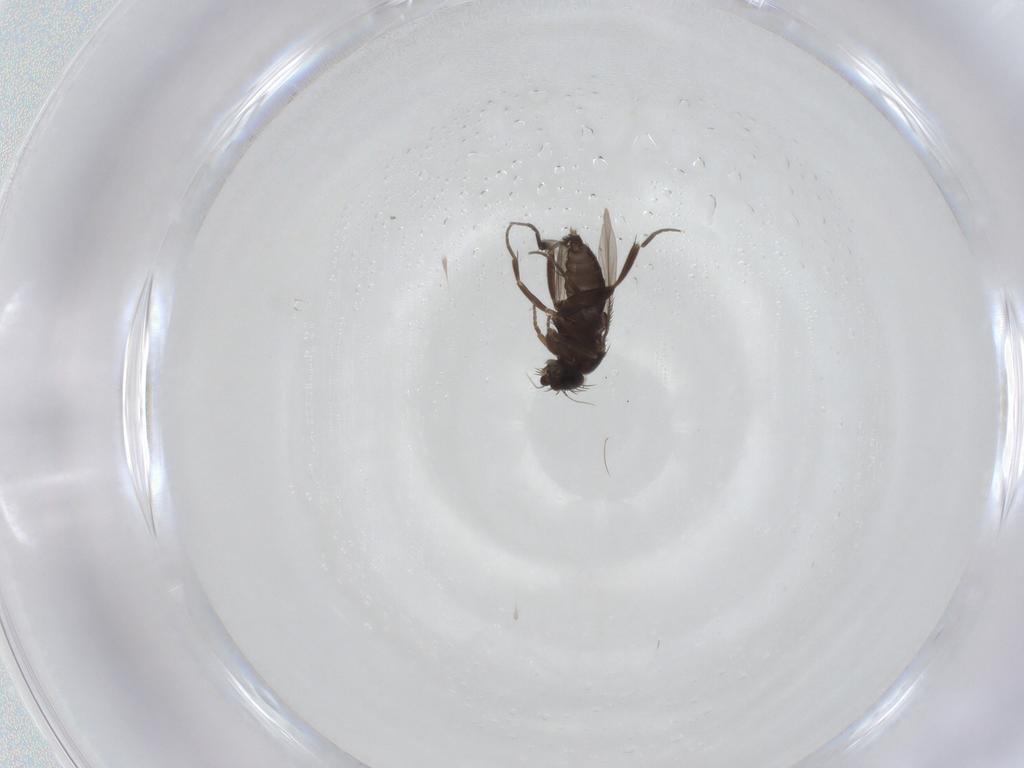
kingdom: Animalia
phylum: Arthropoda
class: Insecta
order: Diptera
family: Phoridae
